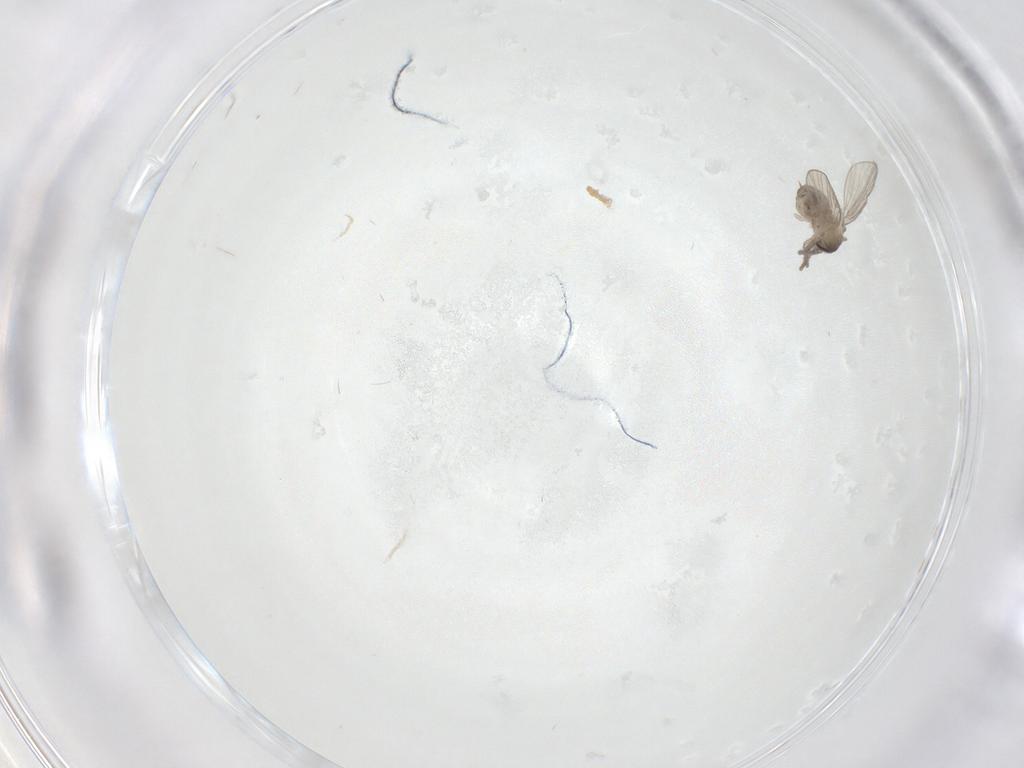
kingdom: Animalia
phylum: Arthropoda
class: Insecta
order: Diptera
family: Psychodidae
